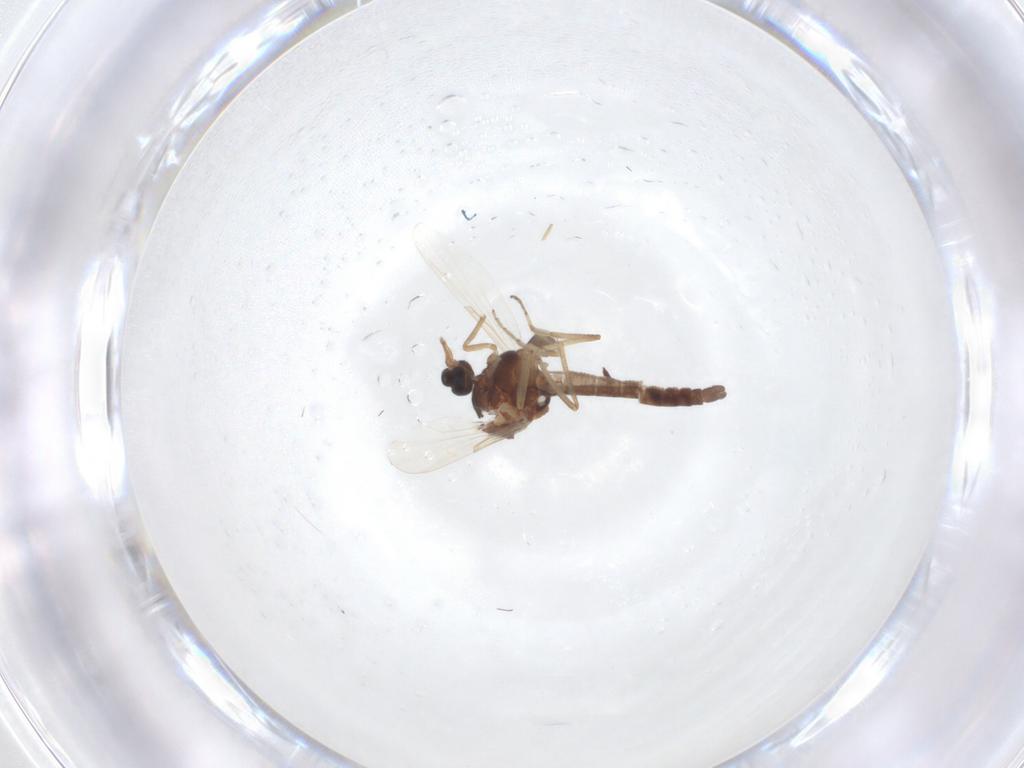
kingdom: Animalia
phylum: Arthropoda
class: Insecta
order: Diptera
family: Ceratopogonidae
